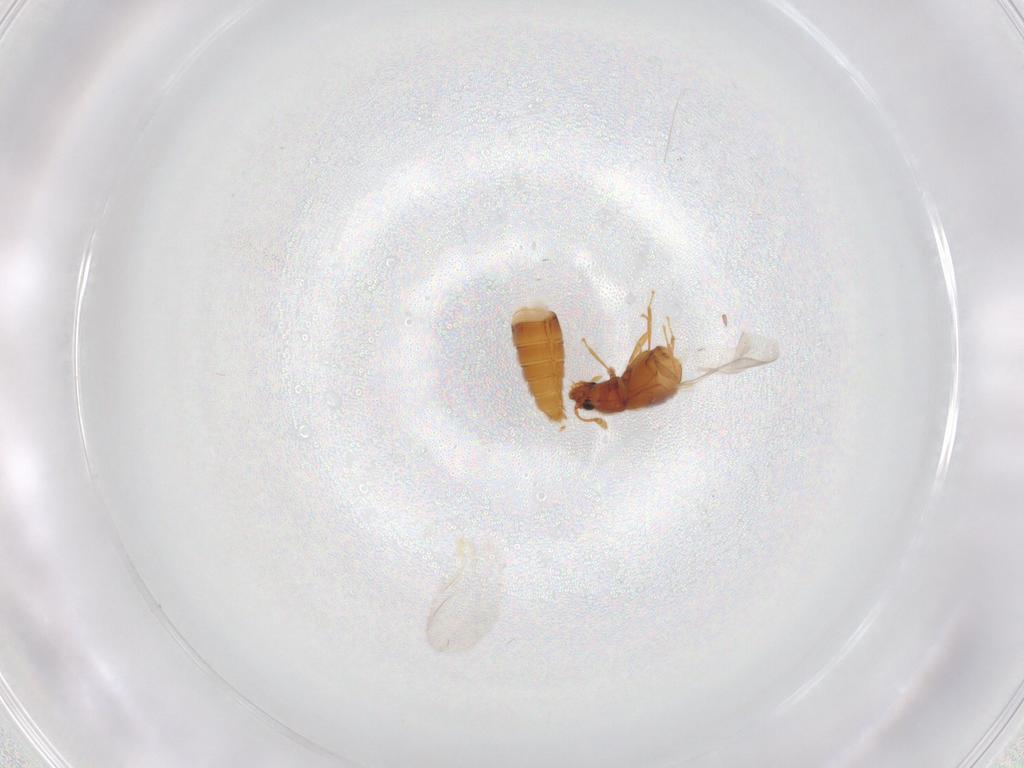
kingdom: Animalia
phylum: Arthropoda
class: Insecta
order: Coleoptera
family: Staphylinidae
